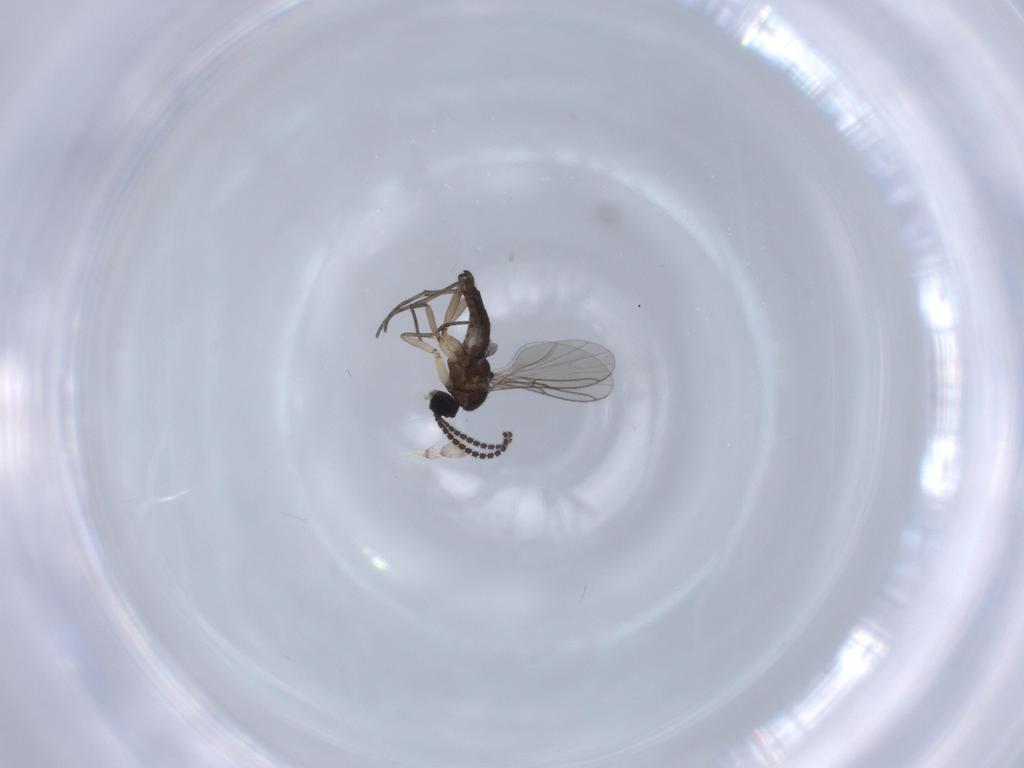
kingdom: Animalia
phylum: Arthropoda
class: Insecta
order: Diptera
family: Sciaridae
